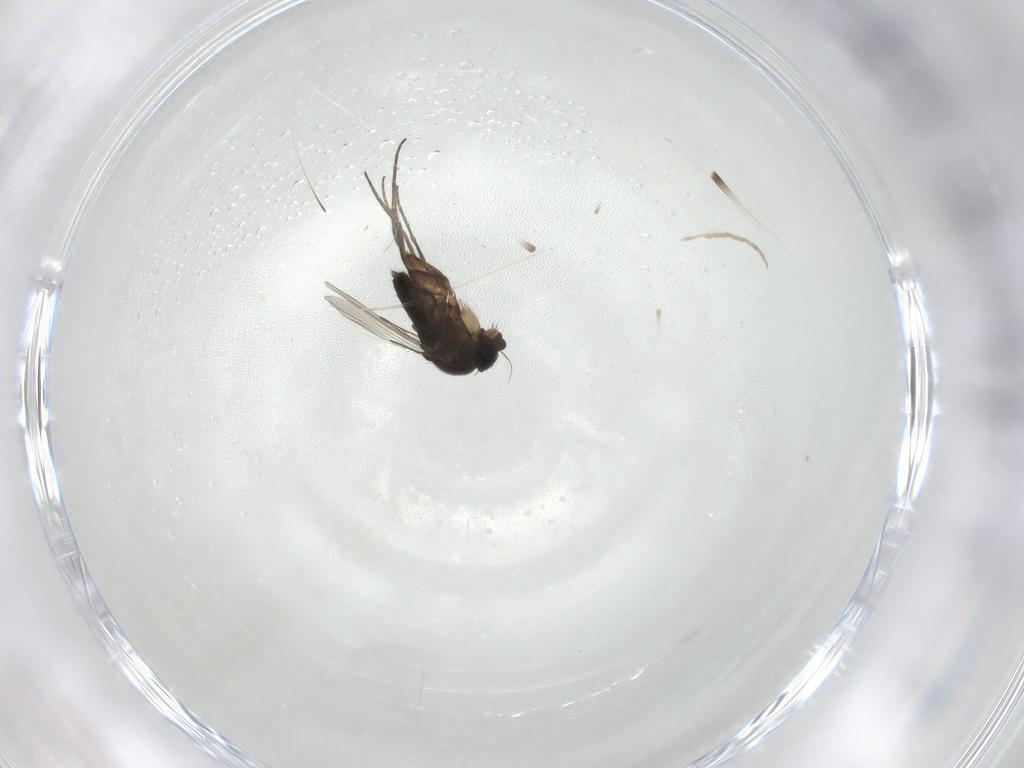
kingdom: Animalia
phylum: Arthropoda
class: Insecta
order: Diptera
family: Phoridae
